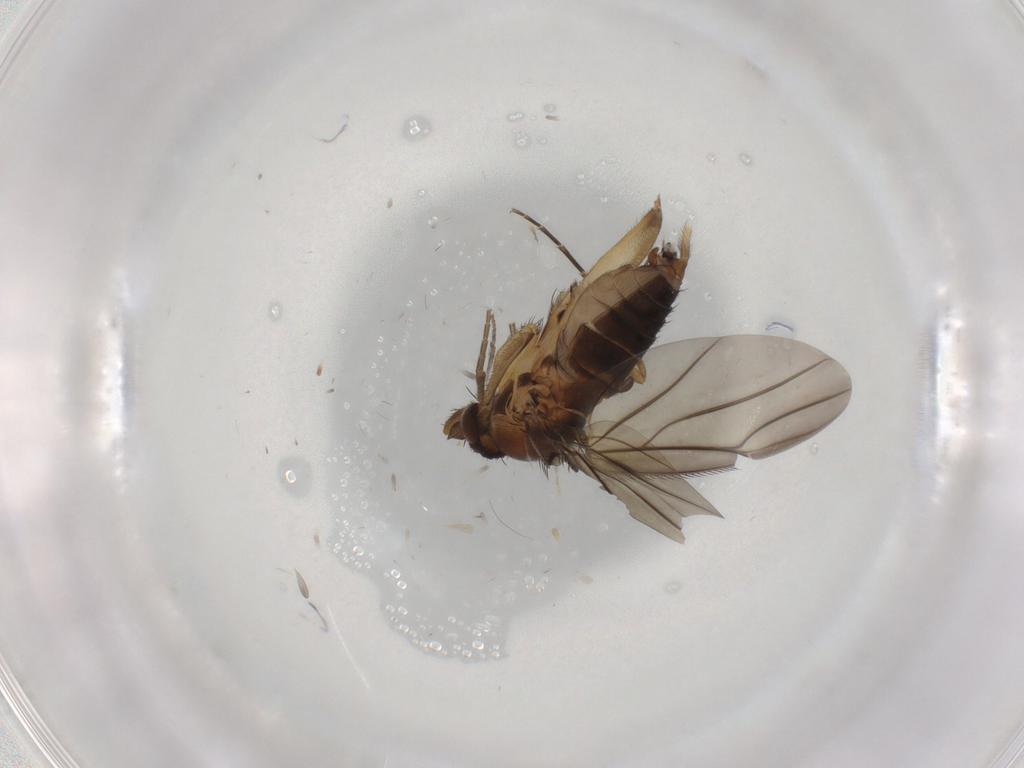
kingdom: Animalia
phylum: Arthropoda
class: Insecta
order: Diptera
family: Phoridae
